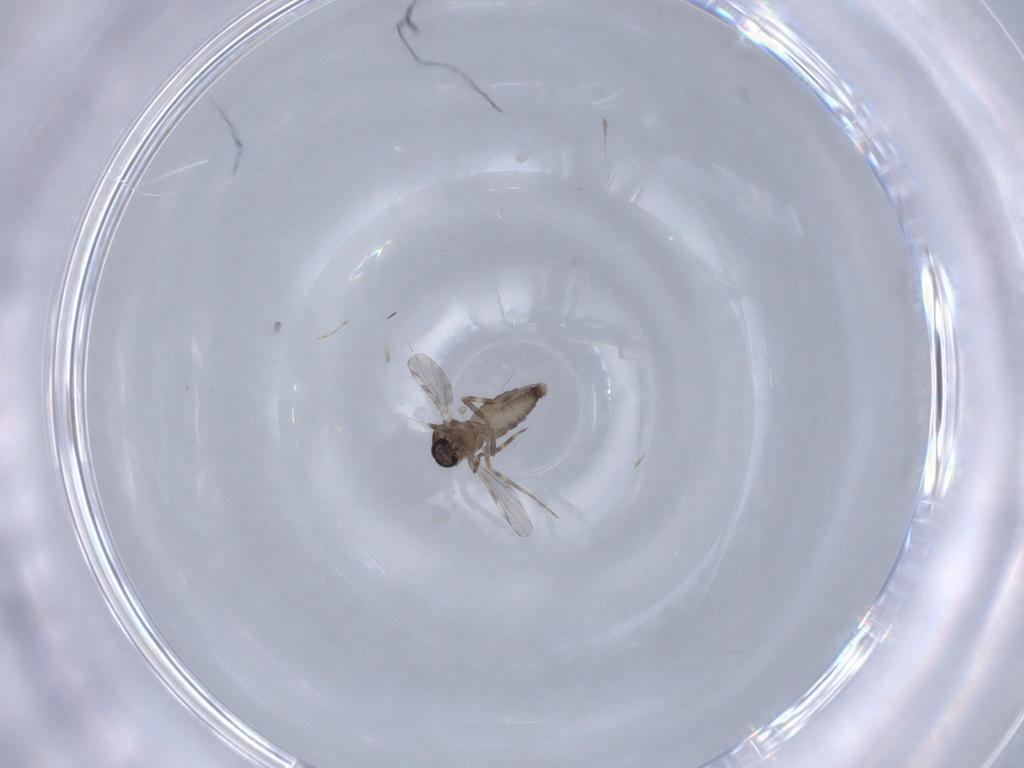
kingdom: Animalia
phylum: Arthropoda
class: Insecta
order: Diptera
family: Ceratopogonidae
